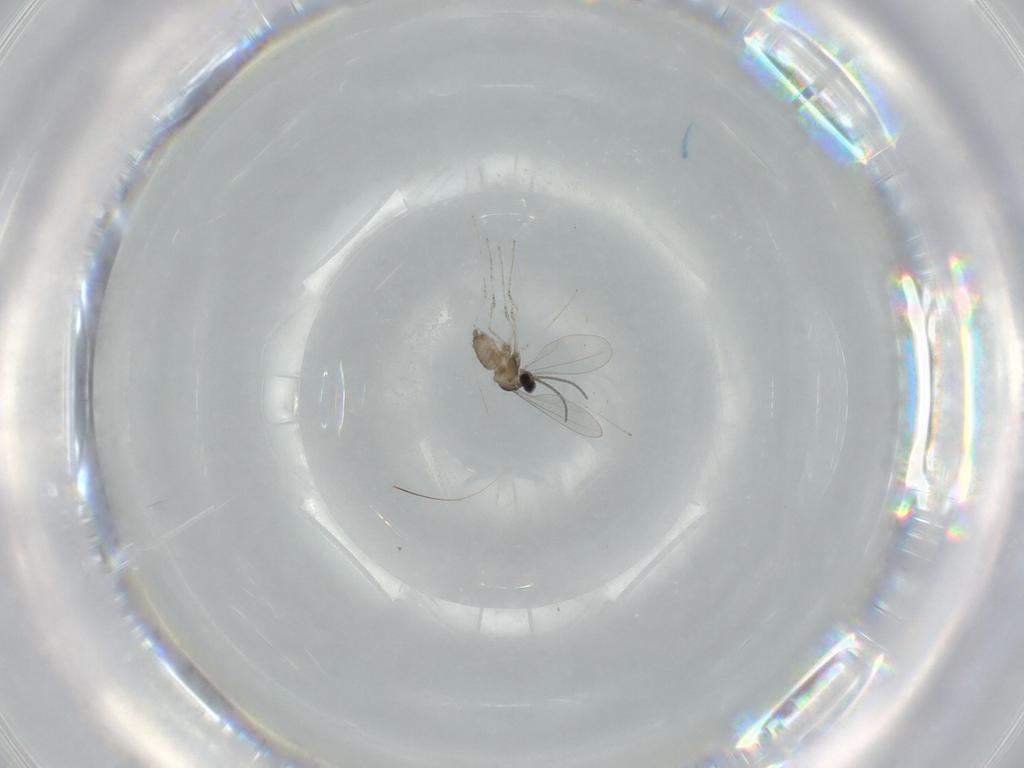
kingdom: Animalia
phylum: Arthropoda
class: Insecta
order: Diptera
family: Cecidomyiidae
